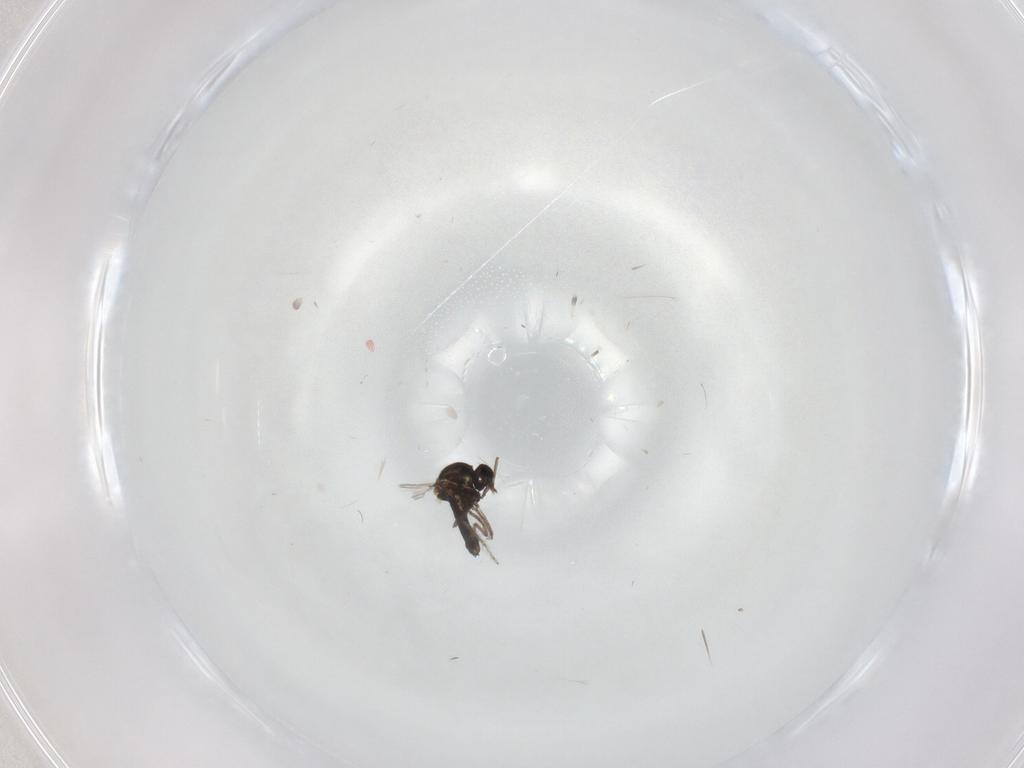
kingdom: Animalia
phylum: Arthropoda
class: Insecta
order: Diptera
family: Ceratopogonidae
